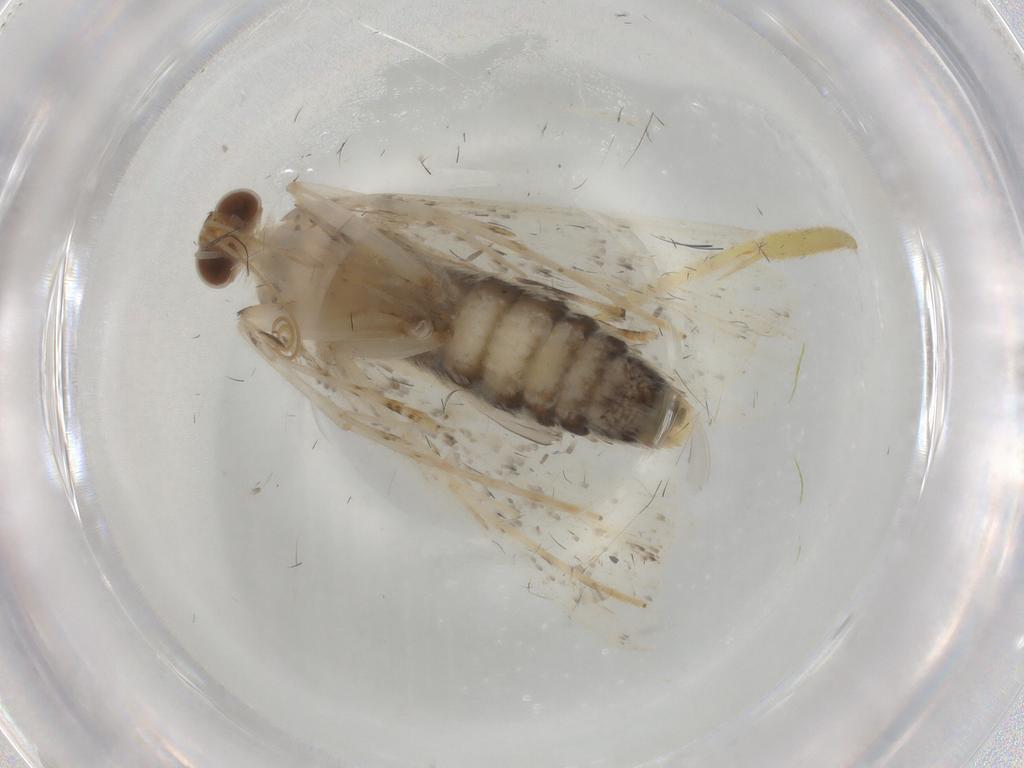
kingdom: Animalia
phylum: Arthropoda
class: Insecta
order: Lepidoptera
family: Crambidae
